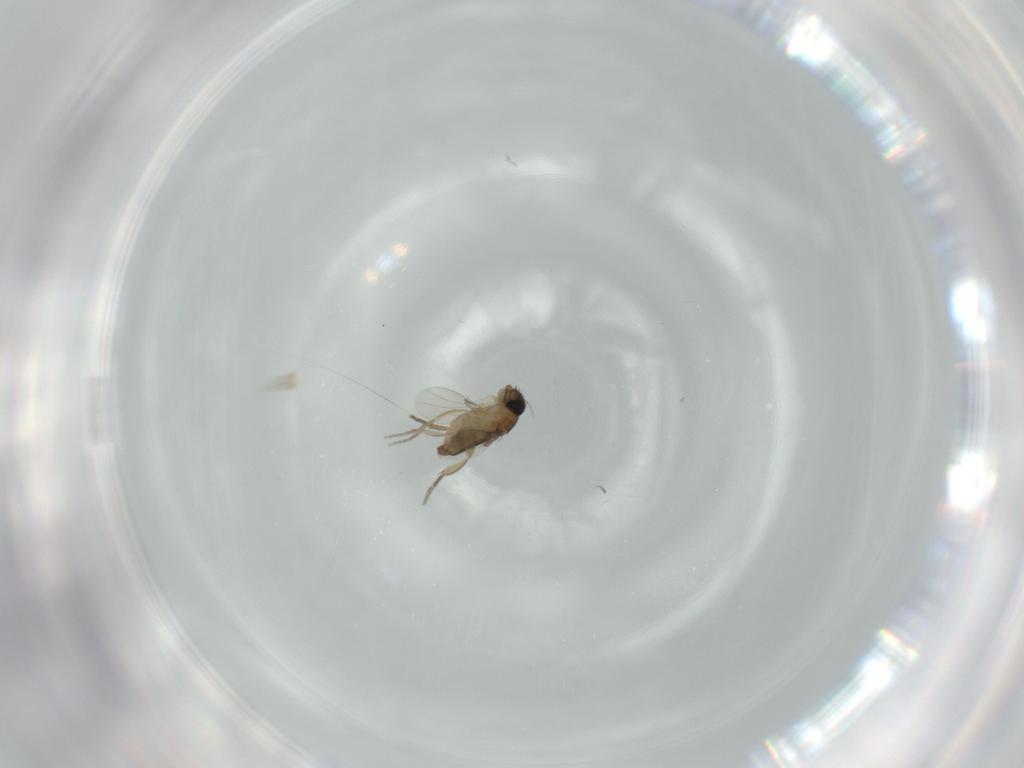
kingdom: Animalia
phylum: Arthropoda
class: Insecta
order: Diptera
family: Phoridae
